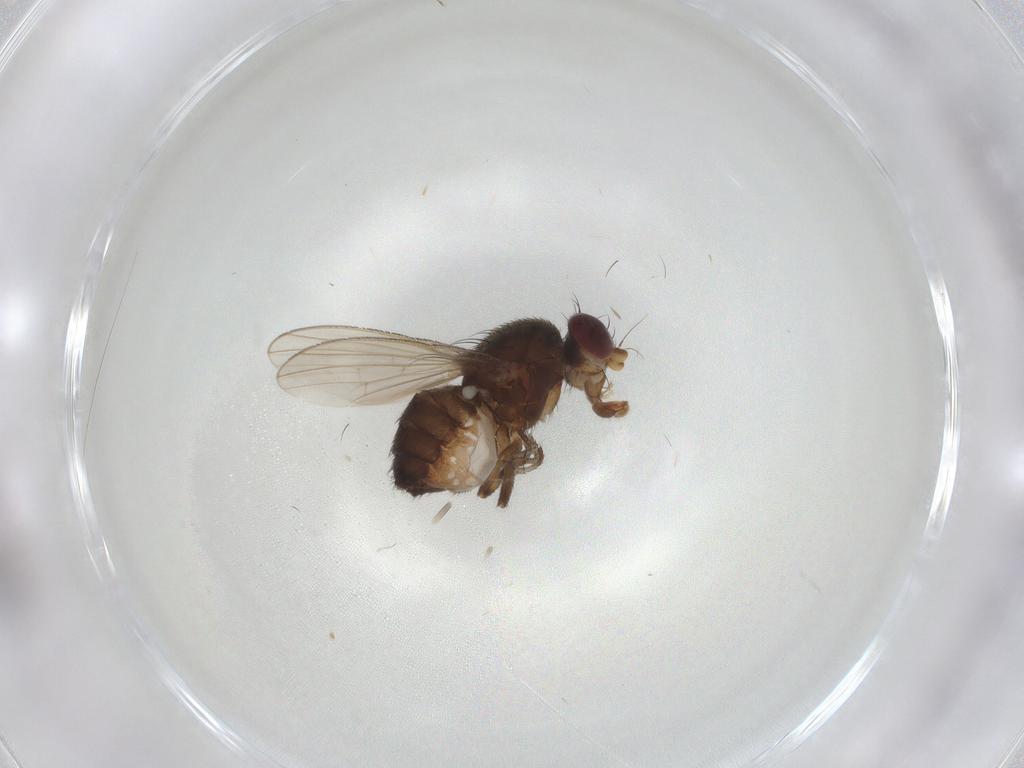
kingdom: Animalia
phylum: Arthropoda
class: Insecta
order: Diptera
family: Heleomyzidae
